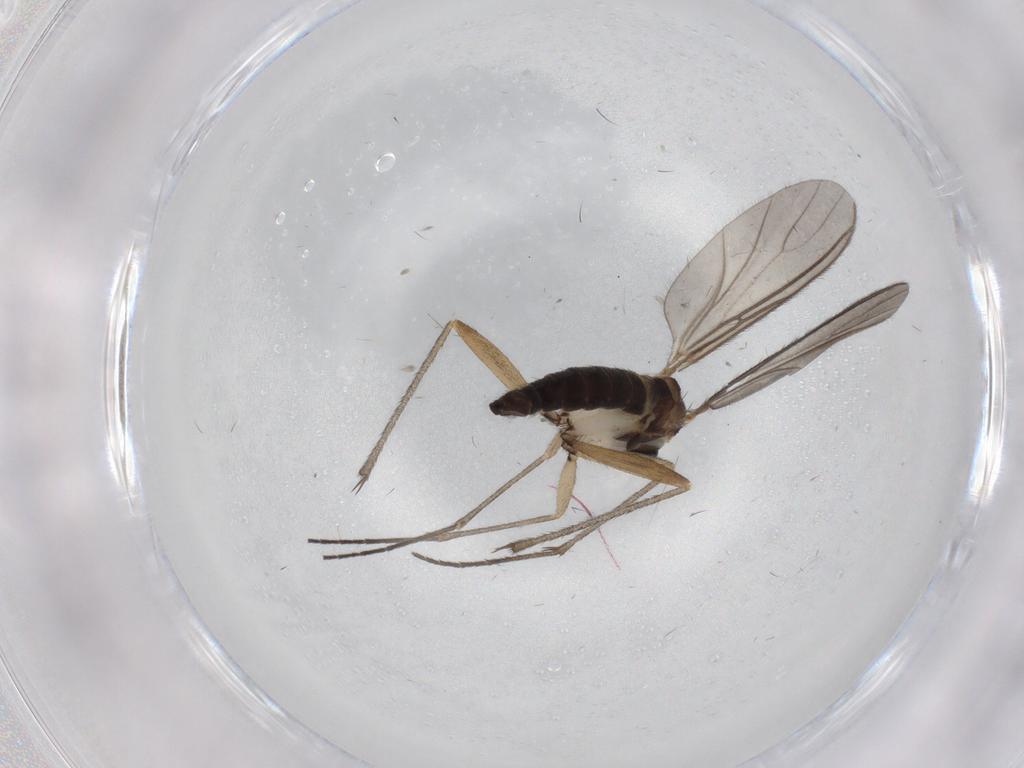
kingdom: Animalia
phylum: Arthropoda
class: Insecta
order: Diptera
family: Sciaridae
